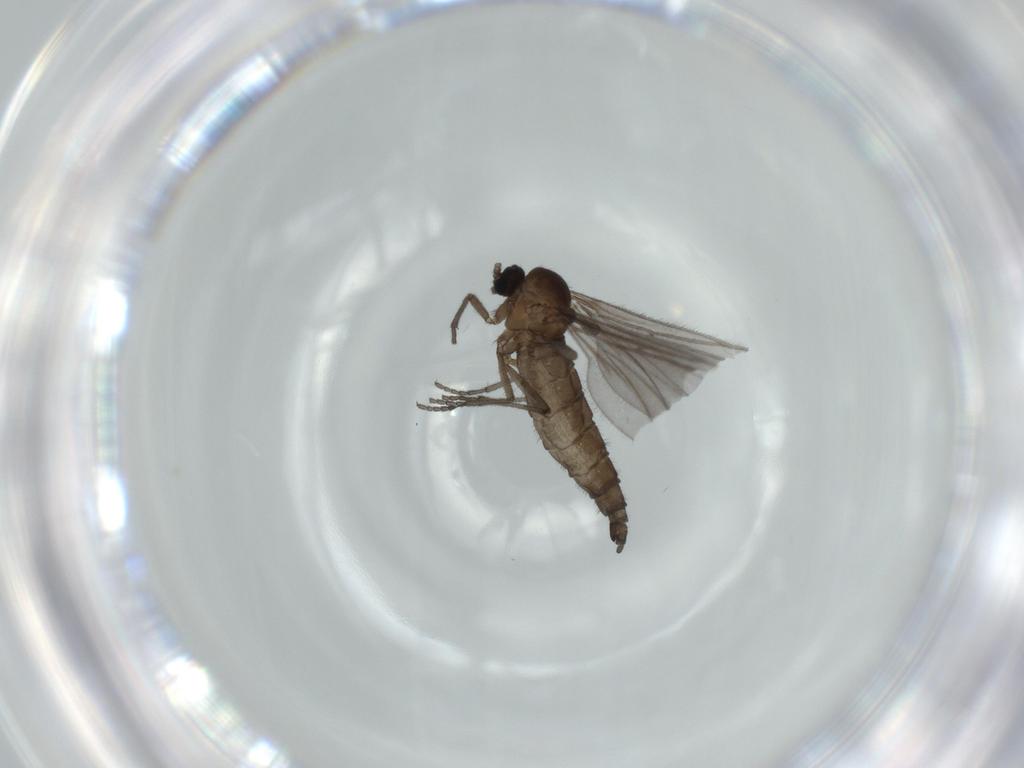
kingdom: Animalia
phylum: Arthropoda
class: Insecta
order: Diptera
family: Sciaridae
